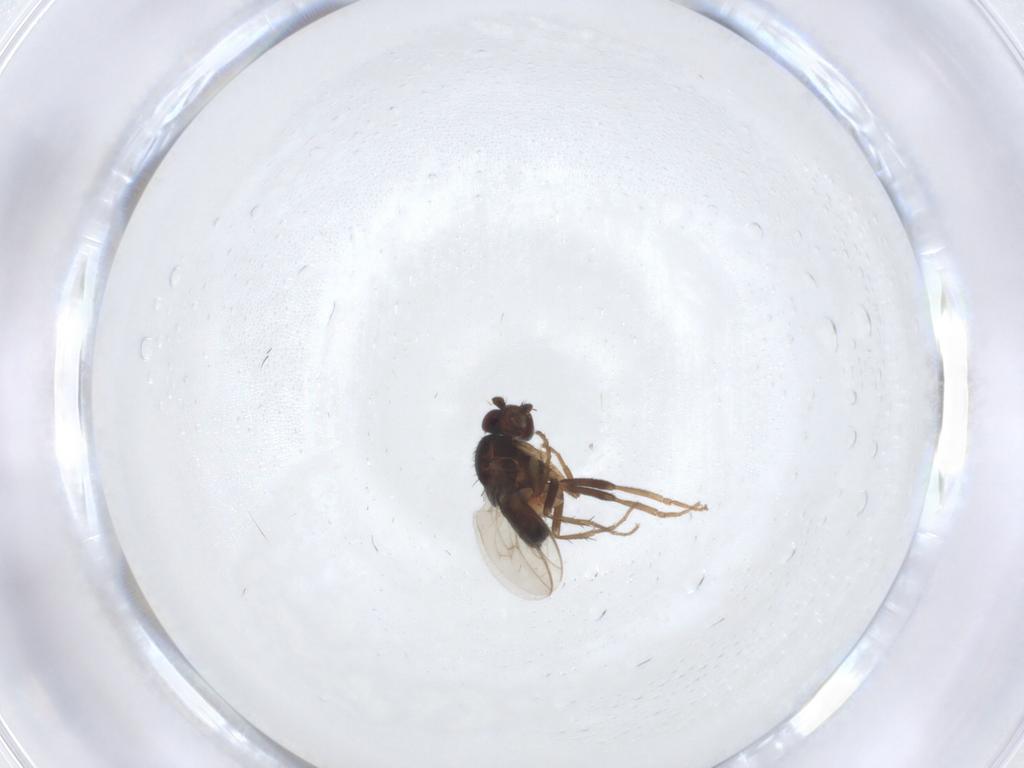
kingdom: Animalia
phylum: Arthropoda
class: Insecta
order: Diptera
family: Sphaeroceridae
